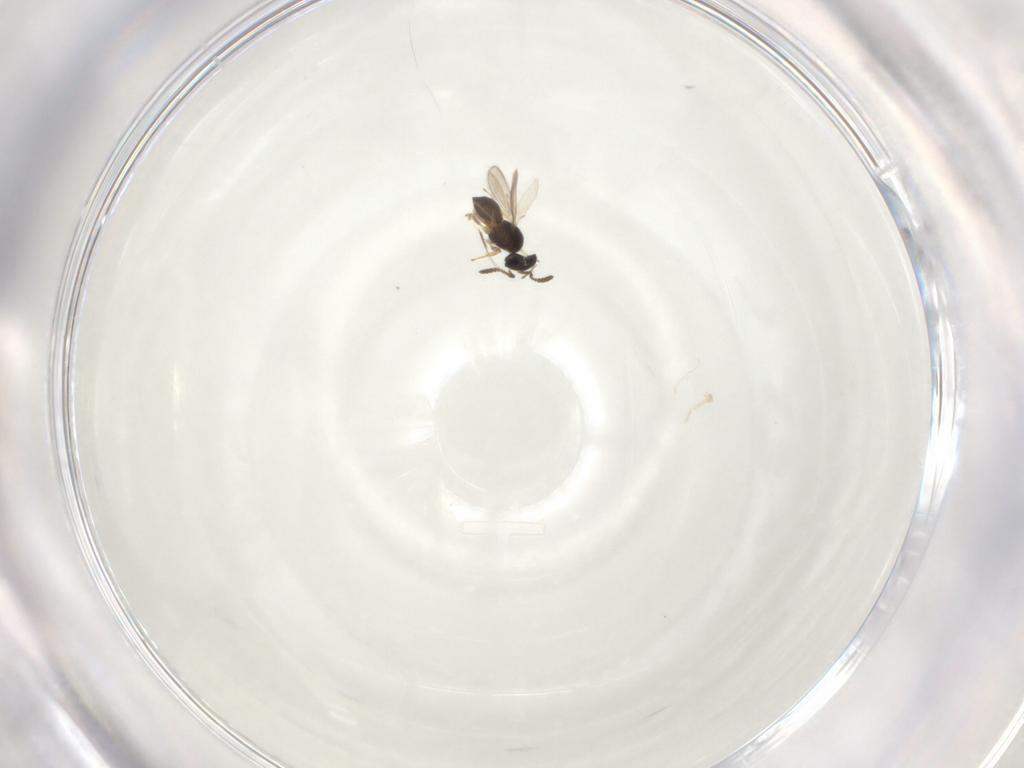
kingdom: Animalia
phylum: Arthropoda
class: Insecta
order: Hymenoptera
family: Scelionidae
